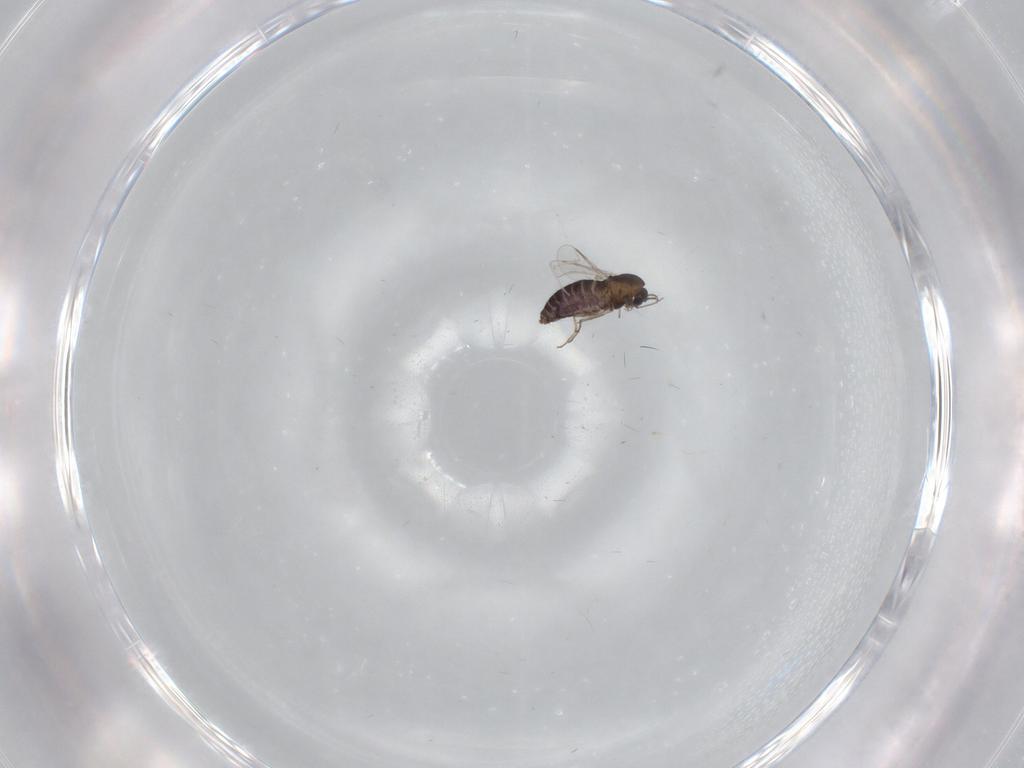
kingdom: Animalia
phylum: Arthropoda
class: Insecta
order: Diptera
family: Chironomidae
